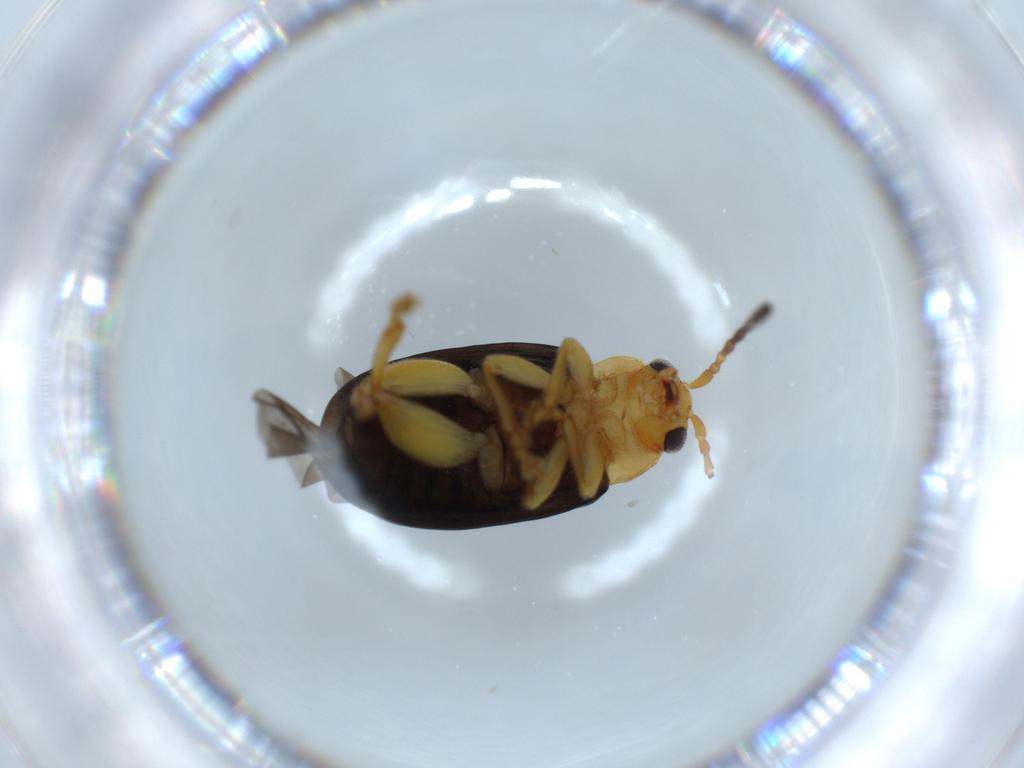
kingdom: Animalia
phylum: Arthropoda
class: Insecta
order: Coleoptera
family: Chrysomelidae
